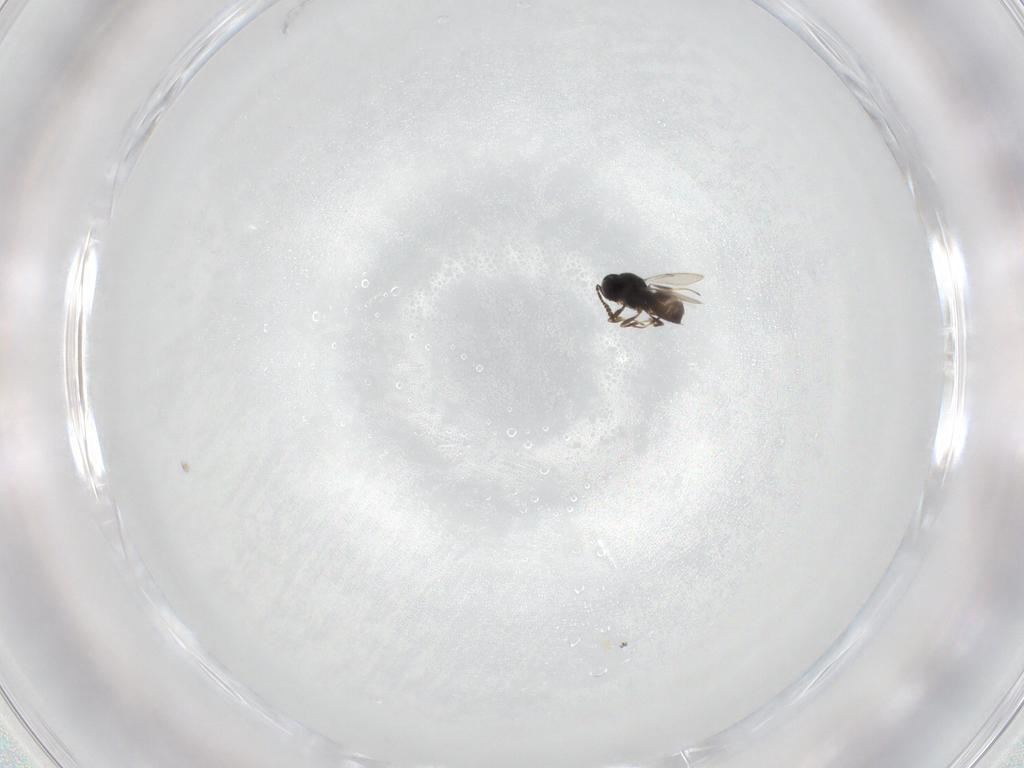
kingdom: Animalia
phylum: Arthropoda
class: Insecta
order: Hymenoptera
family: Scelionidae
